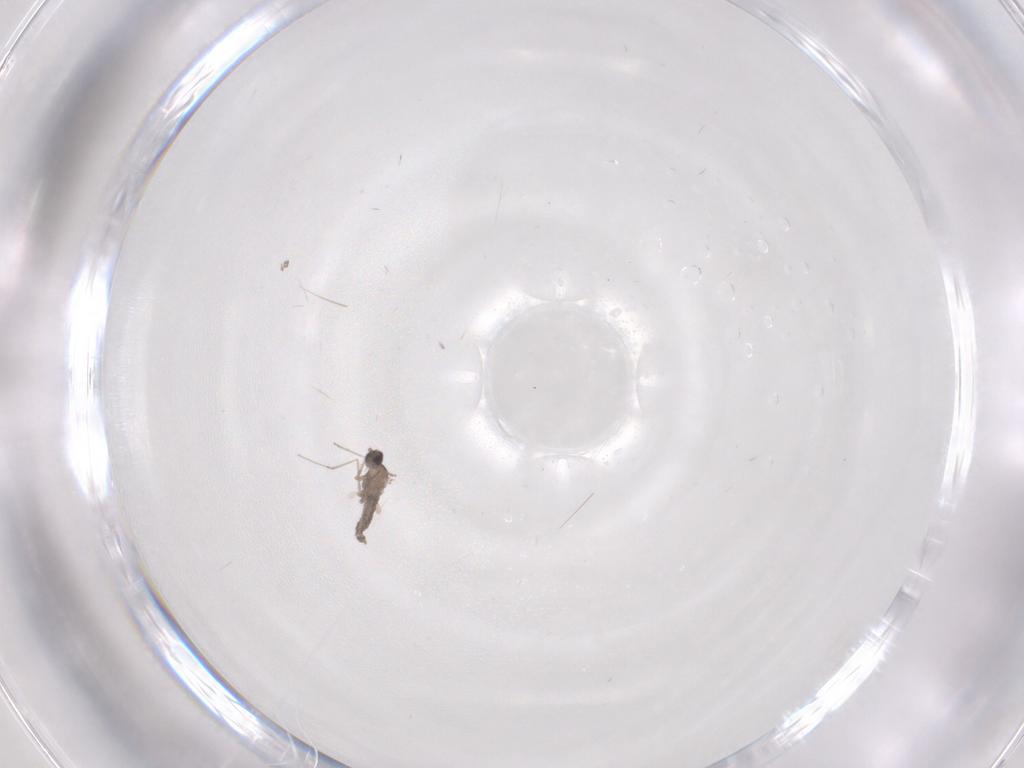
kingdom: Animalia
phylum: Arthropoda
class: Insecta
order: Diptera
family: Cecidomyiidae
